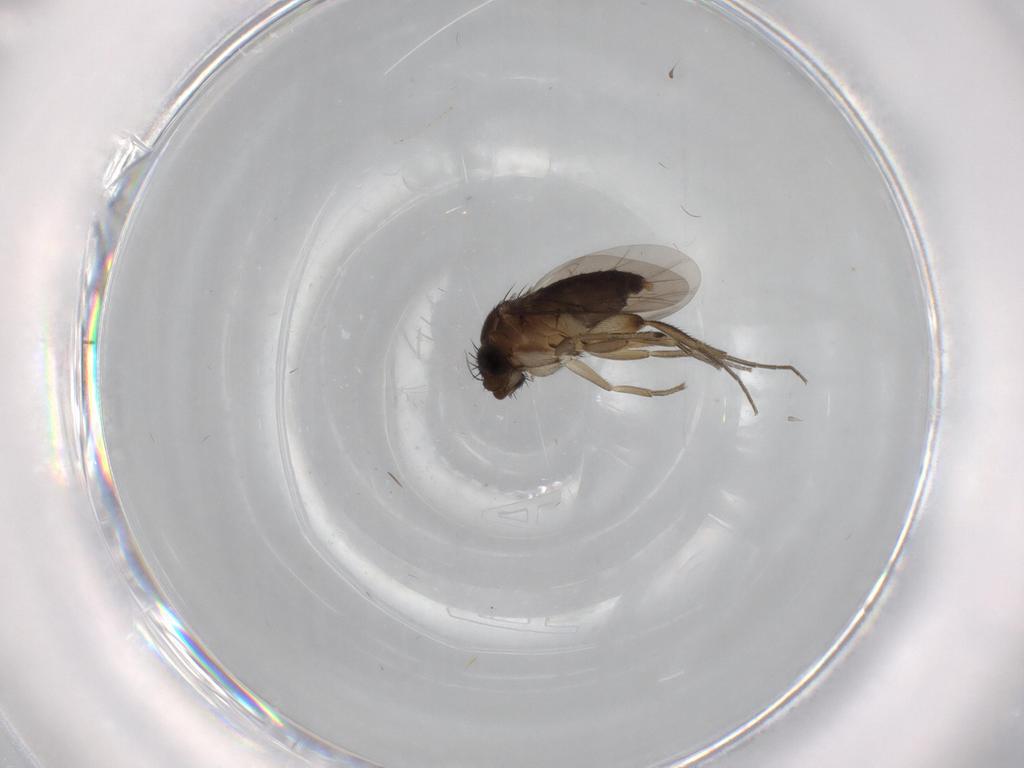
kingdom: Animalia
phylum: Arthropoda
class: Insecta
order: Diptera
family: Phoridae
